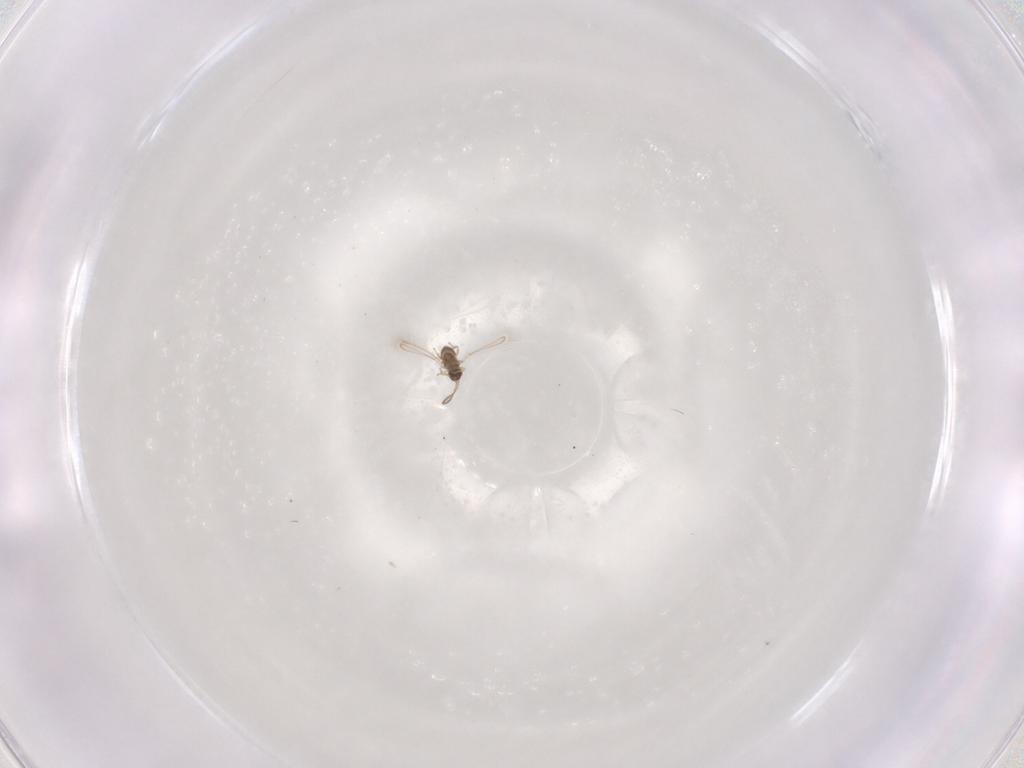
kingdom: Animalia
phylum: Arthropoda
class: Insecta
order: Diptera
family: Sciaridae
